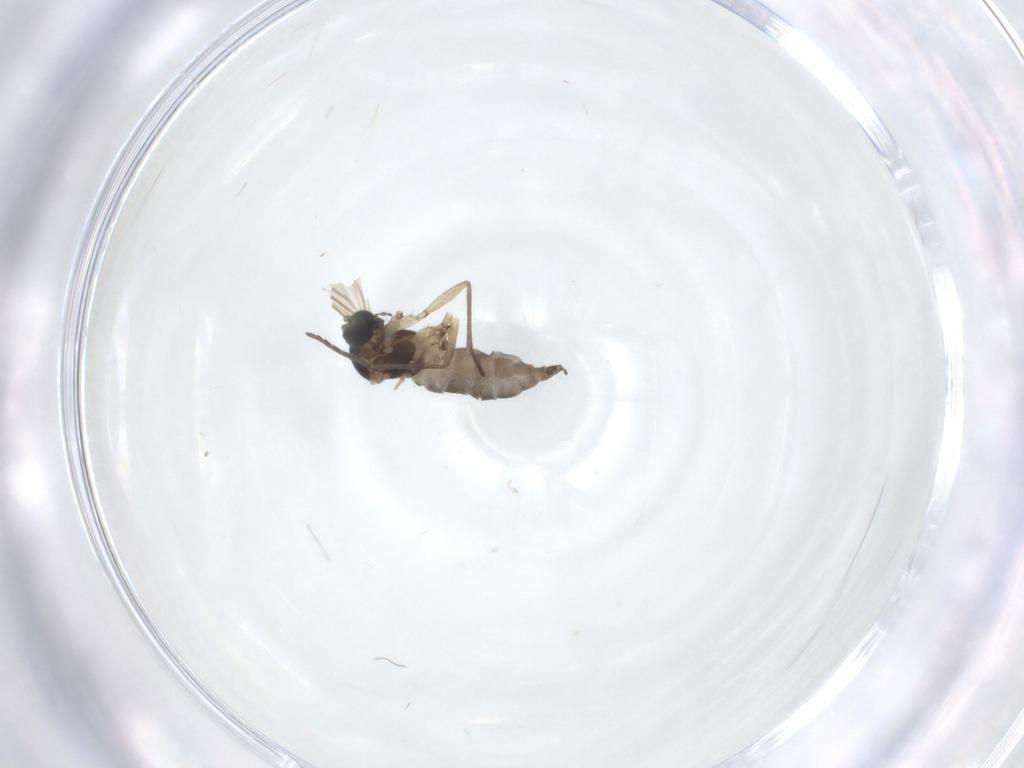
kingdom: Animalia
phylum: Arthropoda
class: Insecta
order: Diptera
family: Sciaridae
